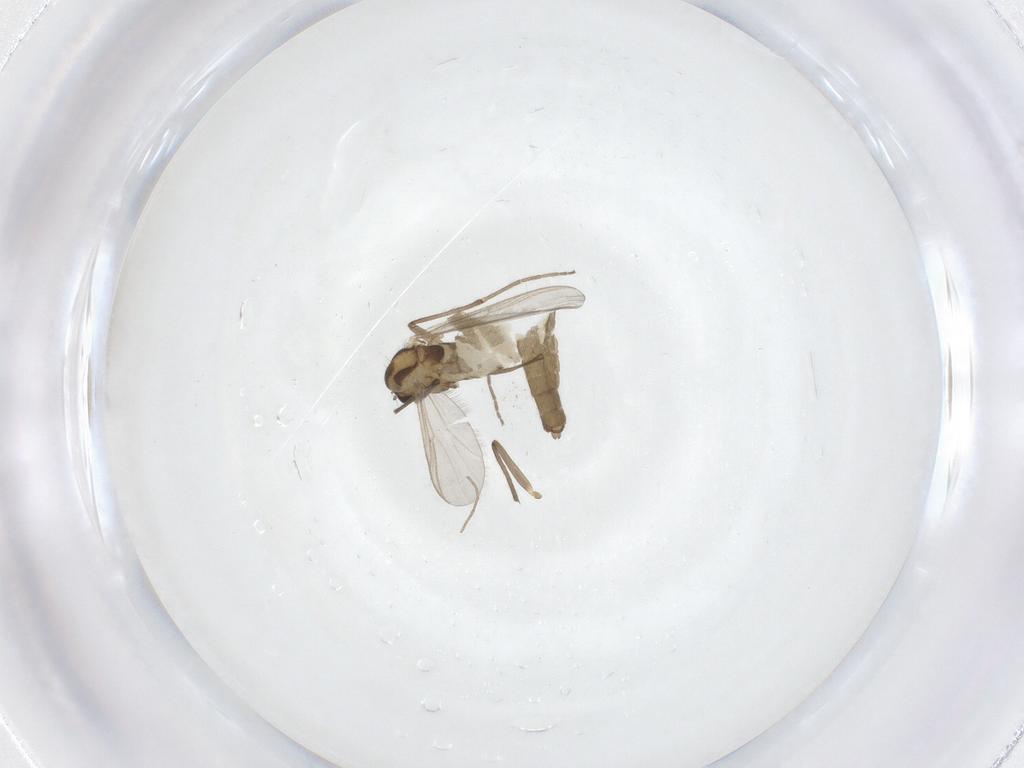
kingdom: Animalia
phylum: Arthropoda
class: Insecta
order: Diptera
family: Chironomidae
